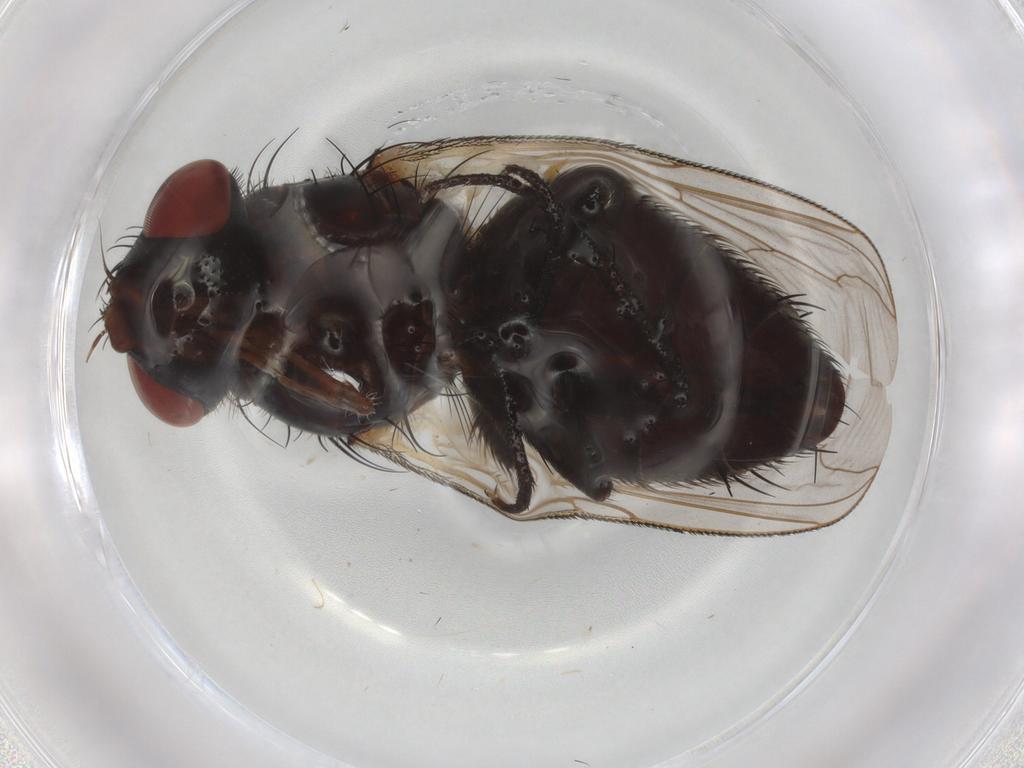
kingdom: Animalia
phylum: Arthropoda
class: Insecta
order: Diptera
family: Sarcophagidae
